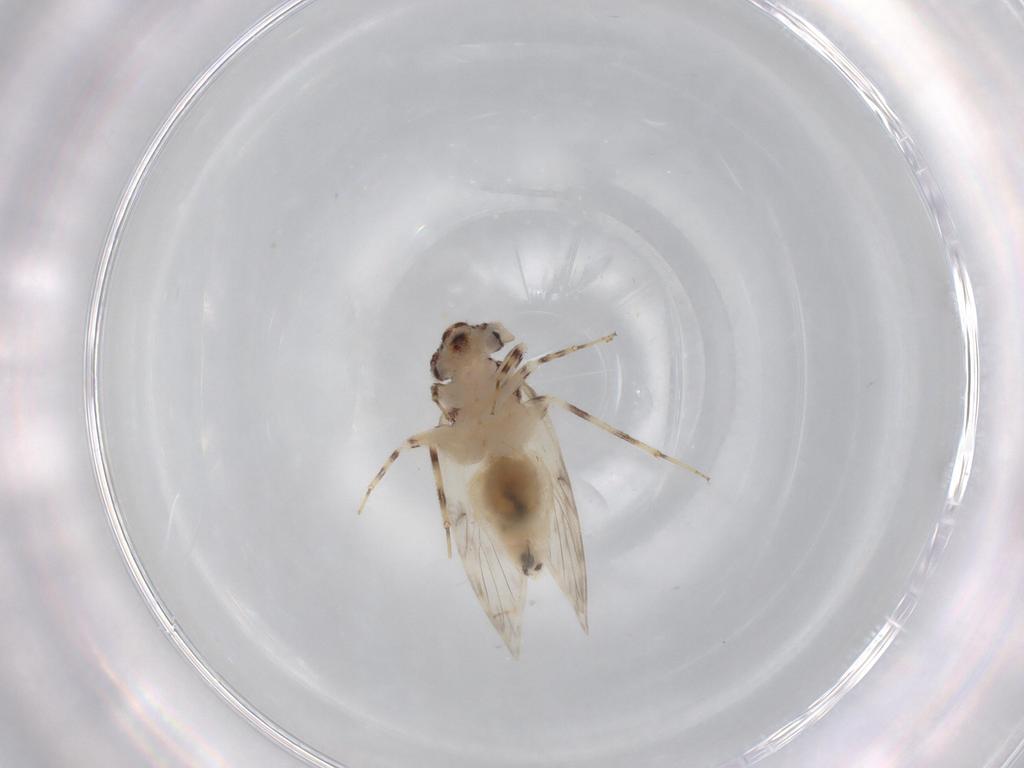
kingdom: Animalia
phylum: Arthropoda
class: Insecta
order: Psocodea
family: Lepidopsocidae
